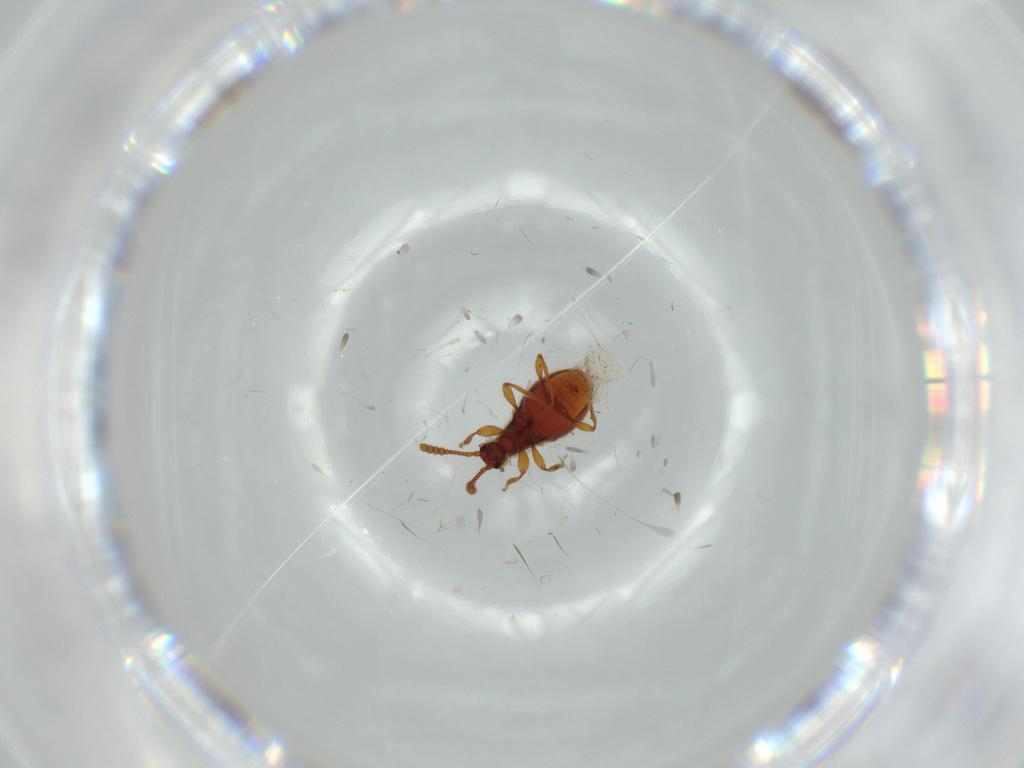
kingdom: Animalia
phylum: Arthropoda
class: Insecta
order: Coleoptera
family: Chrysomelidae
